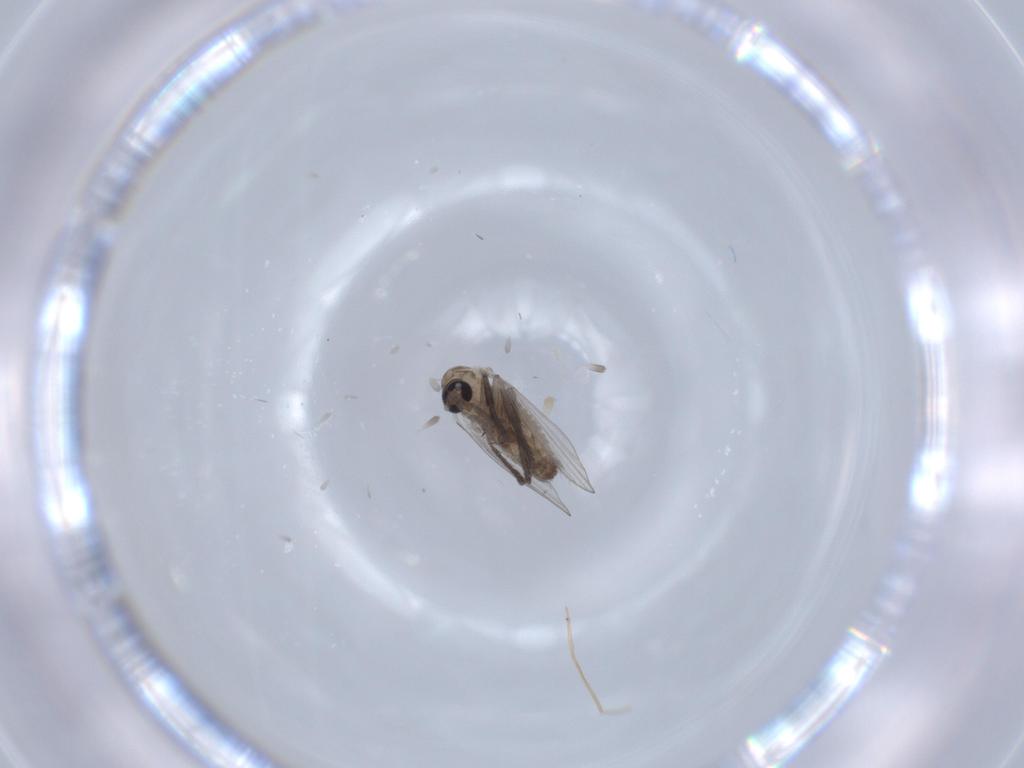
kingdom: Animalia
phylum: Arthropoda
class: Insecta
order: Diptera
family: Psychodidae
